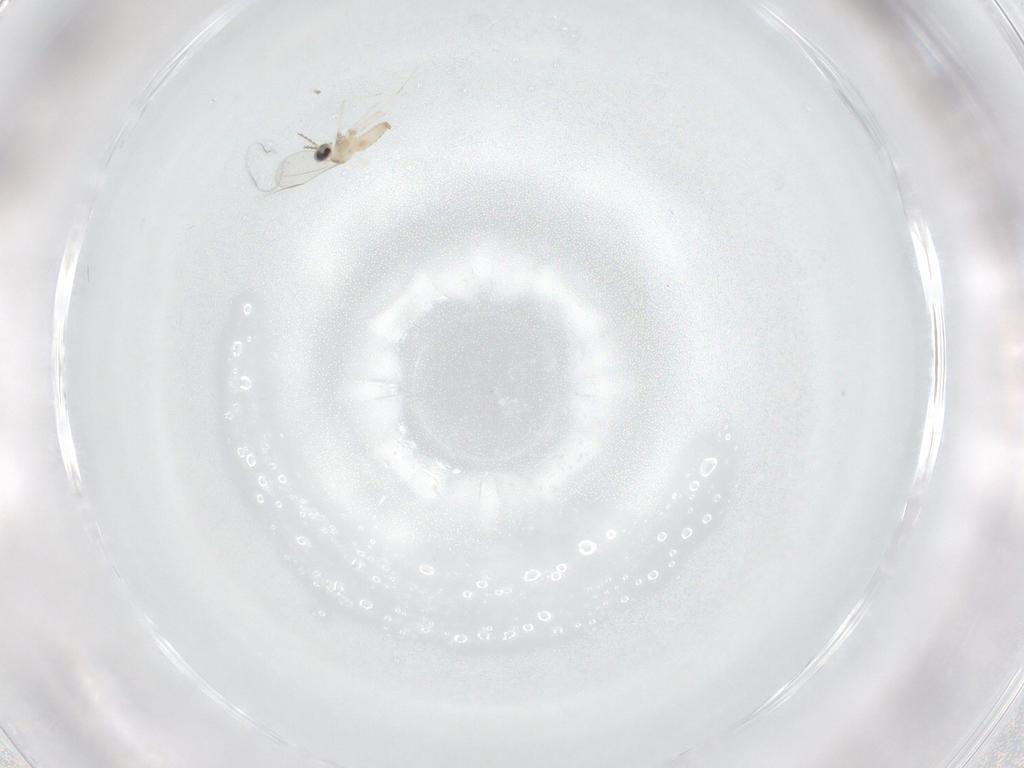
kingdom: Animalia
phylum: Arthropoda
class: Insecta
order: Diptera
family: Cecidomyiidae
